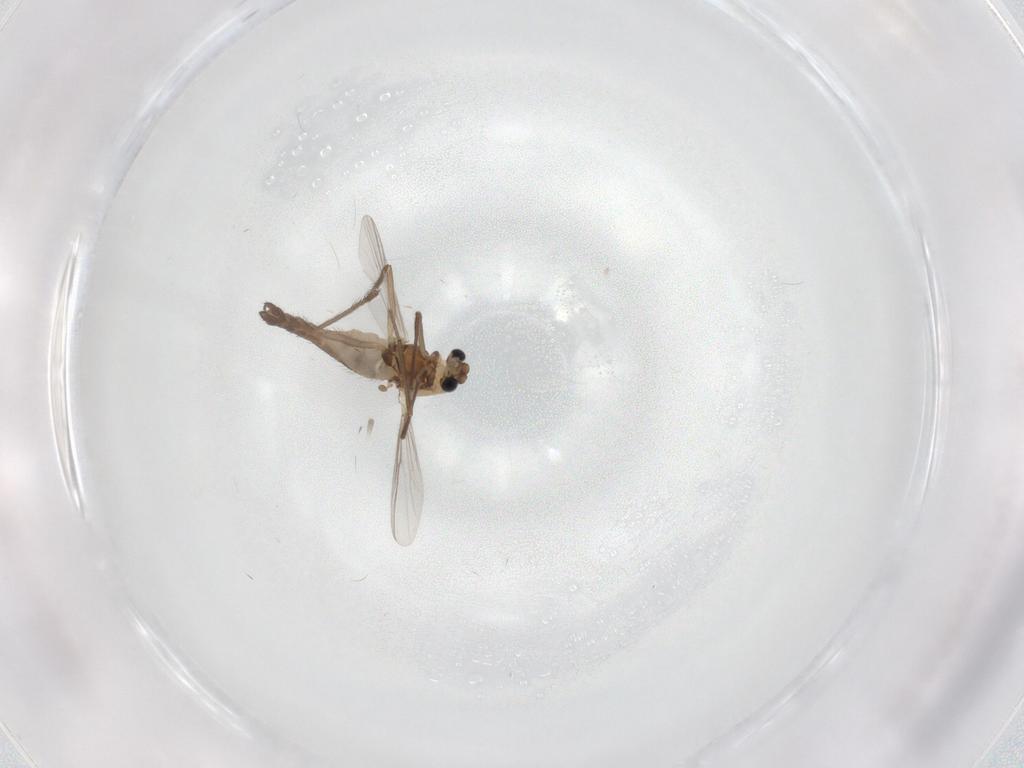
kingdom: Animalia
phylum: Arthropoda
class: Insecta
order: Diptera
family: Chironomidae
